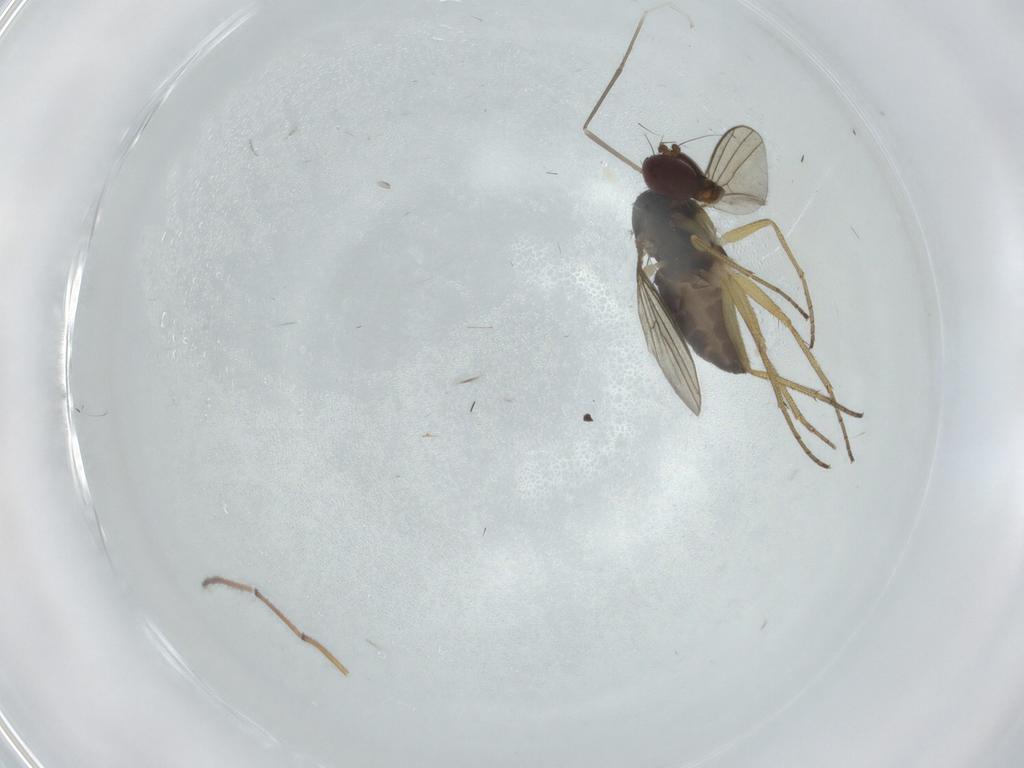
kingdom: Animalia
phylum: Arthropoda
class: Insecta
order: Diptera
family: Dolichopodidae
